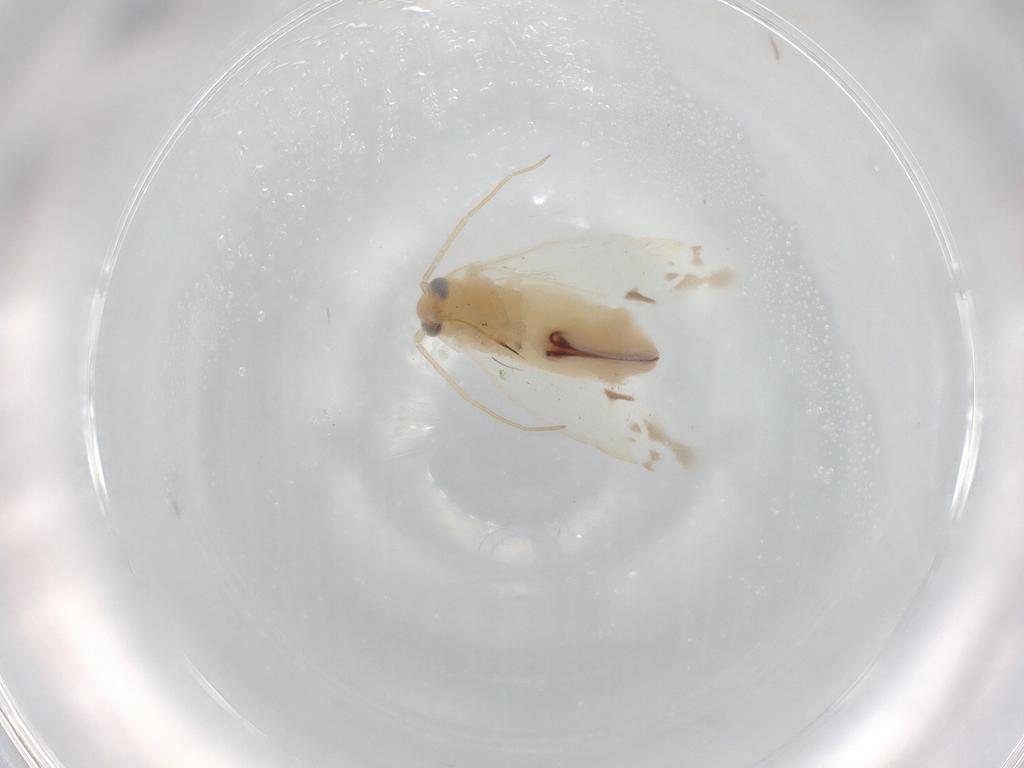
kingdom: Animalia
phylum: Arthropoda
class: Insecta
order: Hemiptera
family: Miridae
